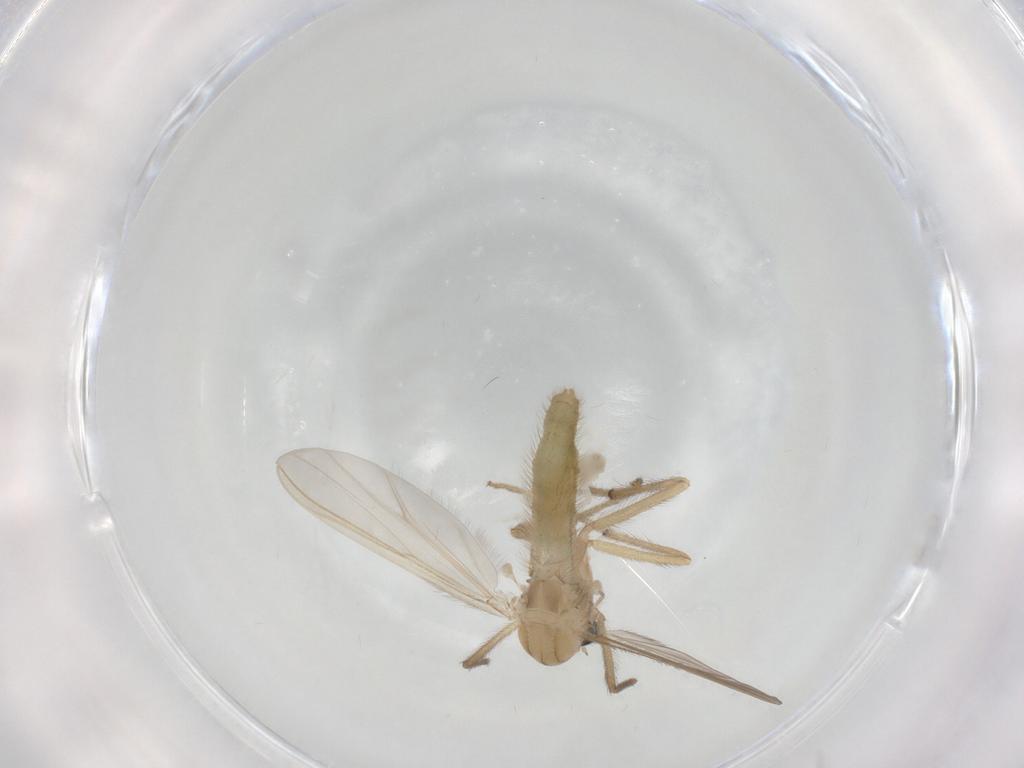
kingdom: Animalia
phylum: Arthropoda
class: Insecta
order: Diptera
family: Chironomidae
